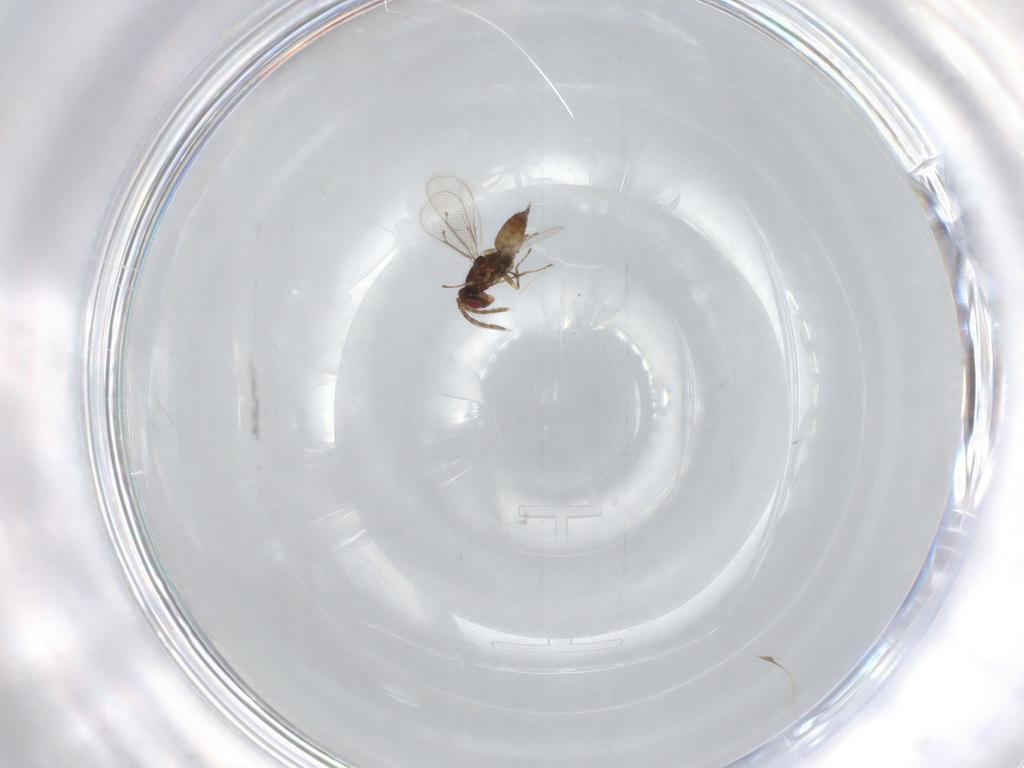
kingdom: Animalia
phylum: Arthropoda
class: Insecta
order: Hymenoptera
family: Eulophidae
